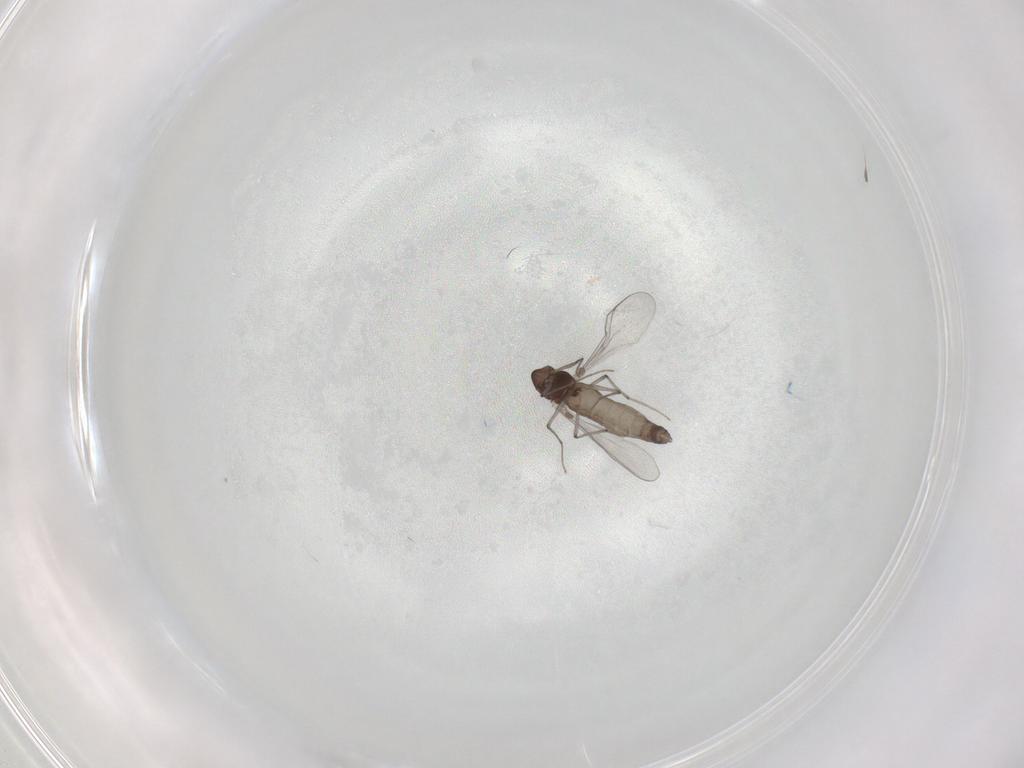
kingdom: Animalia
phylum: Arthropoda
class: Insecta
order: Diptera
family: Chironomidae
